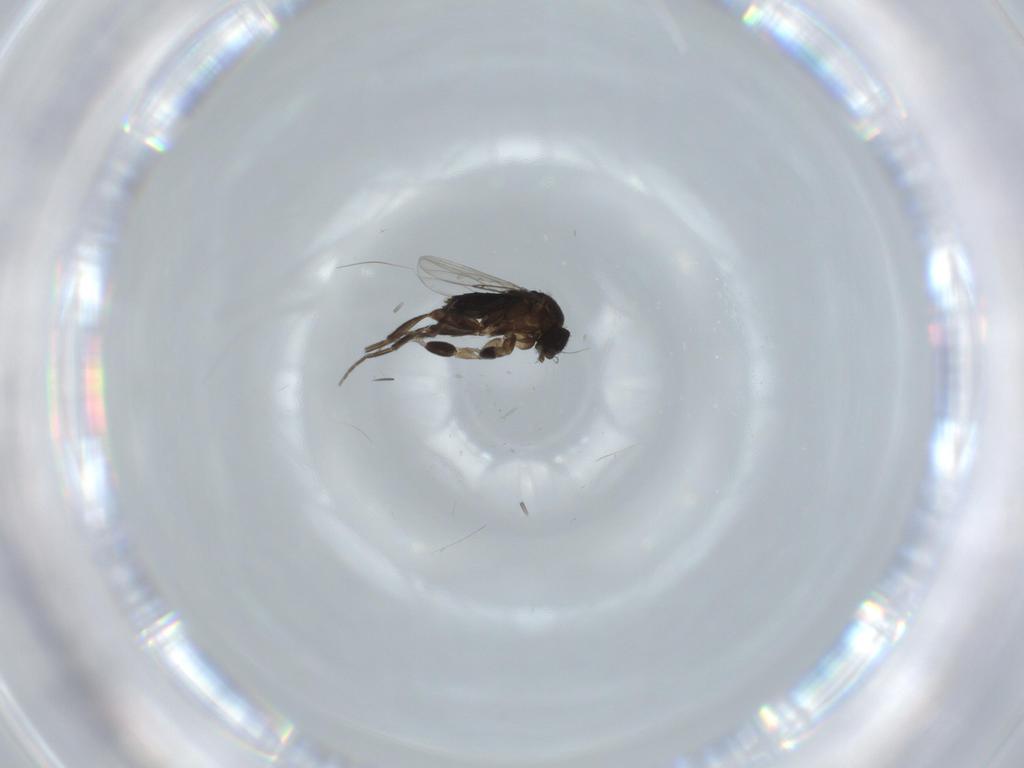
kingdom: Animalia
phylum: Arthropoda
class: Insecta
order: Diptera
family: Phoridae
